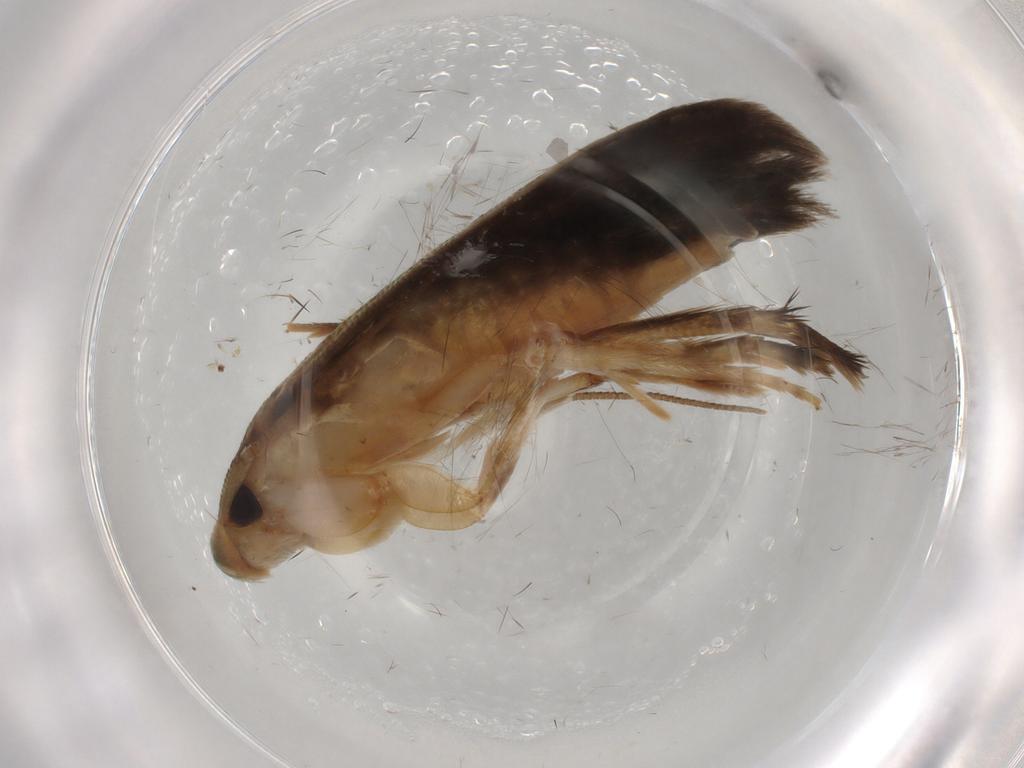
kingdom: Animalia
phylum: Arthropoda
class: Insecta
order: Lepidoptera
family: Tineidae
